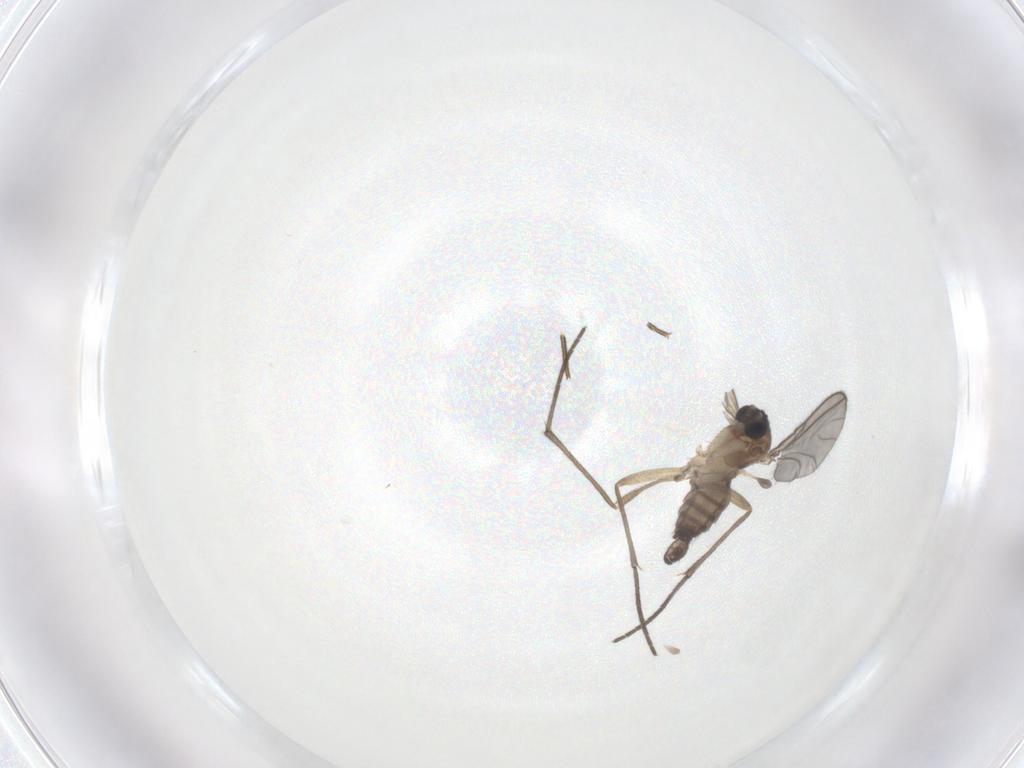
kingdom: Animalia
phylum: Arthropoda
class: Insecta
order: Diptera
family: Sciaridae
